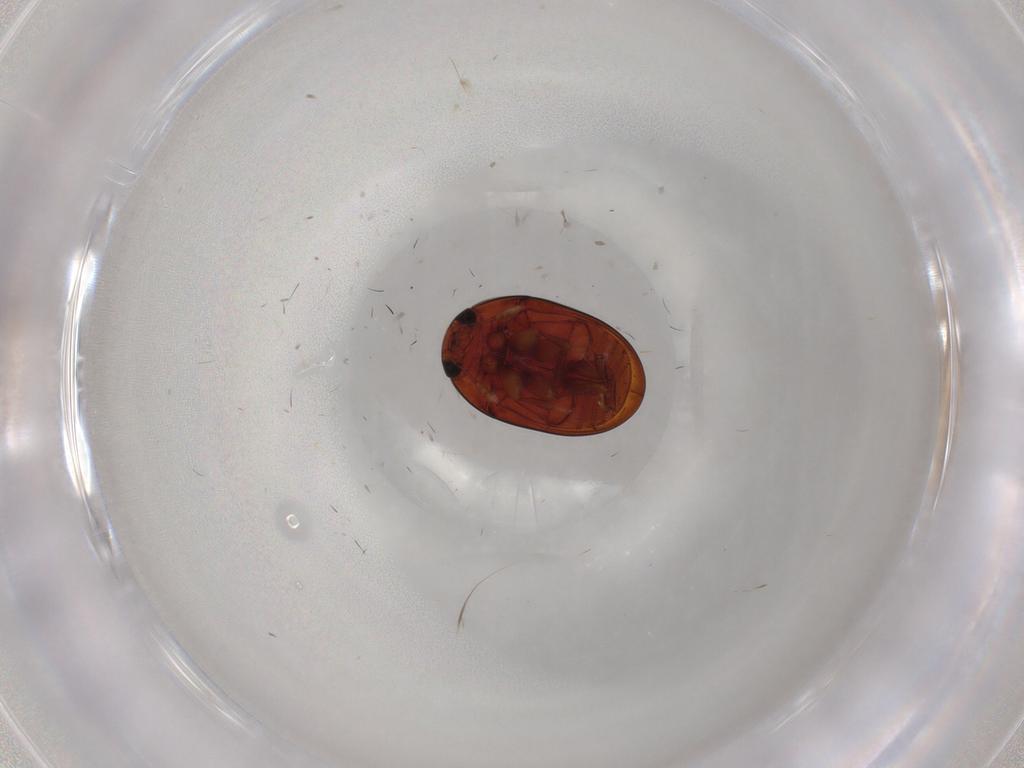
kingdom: Animalia
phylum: Arthropoda
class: Insecta
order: Coleoptera
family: Phalacridae
